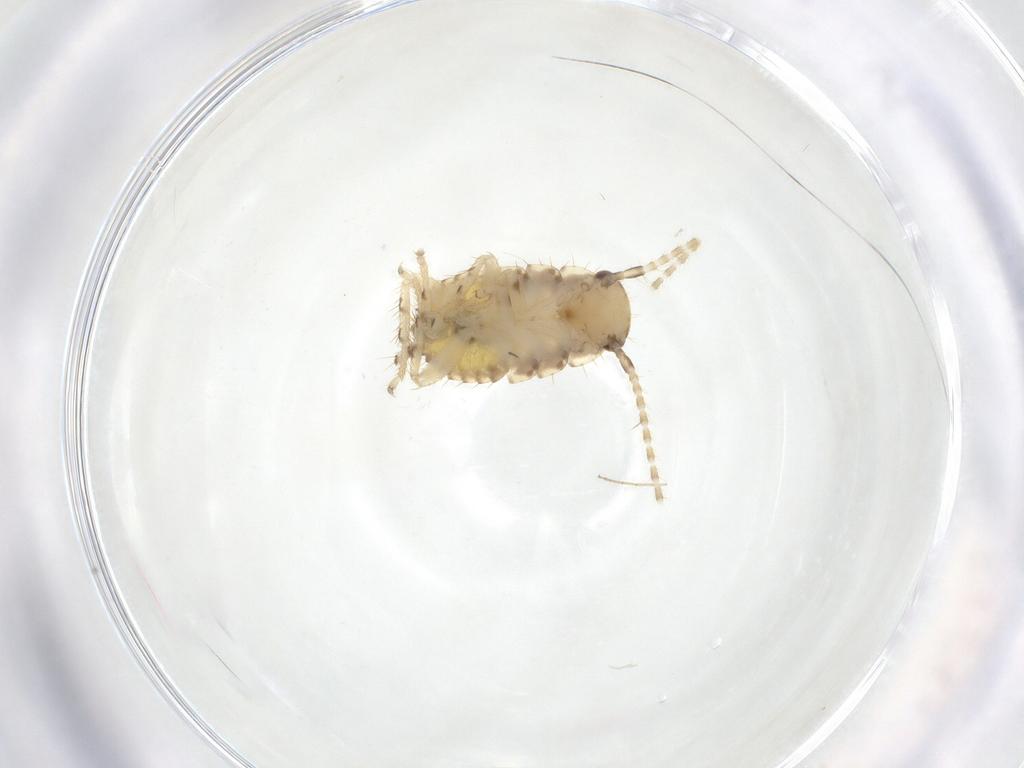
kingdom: Animalia
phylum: Arthropoda
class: Insecta
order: Blattodea
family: Ectobiidae
